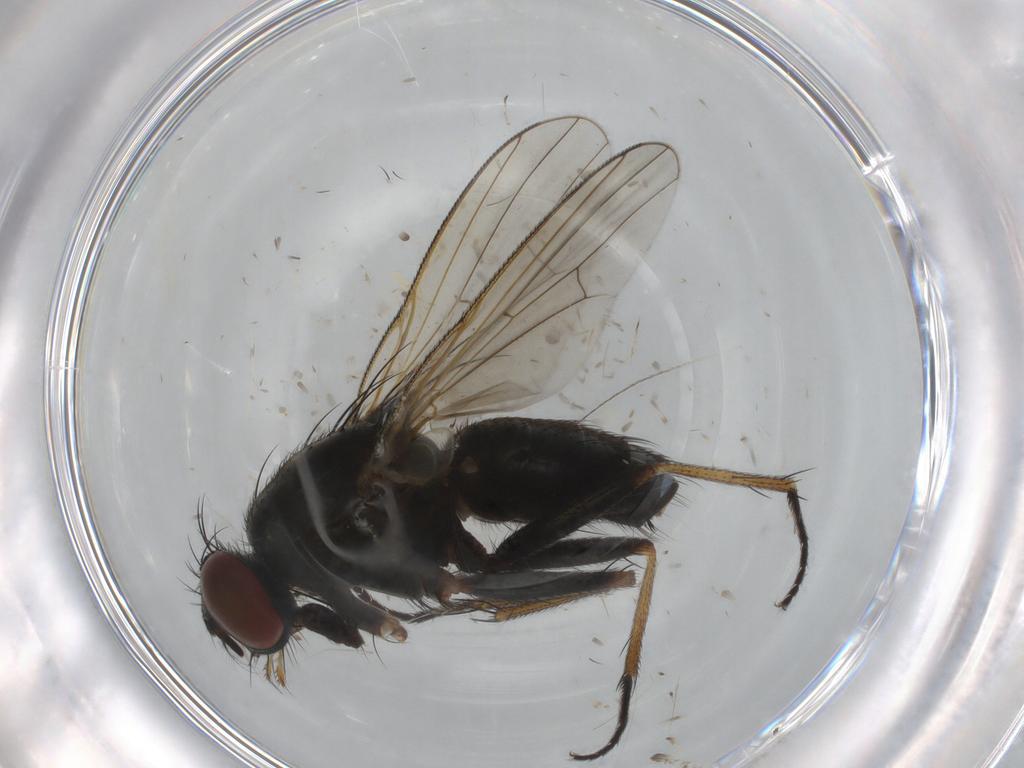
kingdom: Animalia
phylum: Arthropoda
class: Insecta
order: Diptera
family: Muscidae
